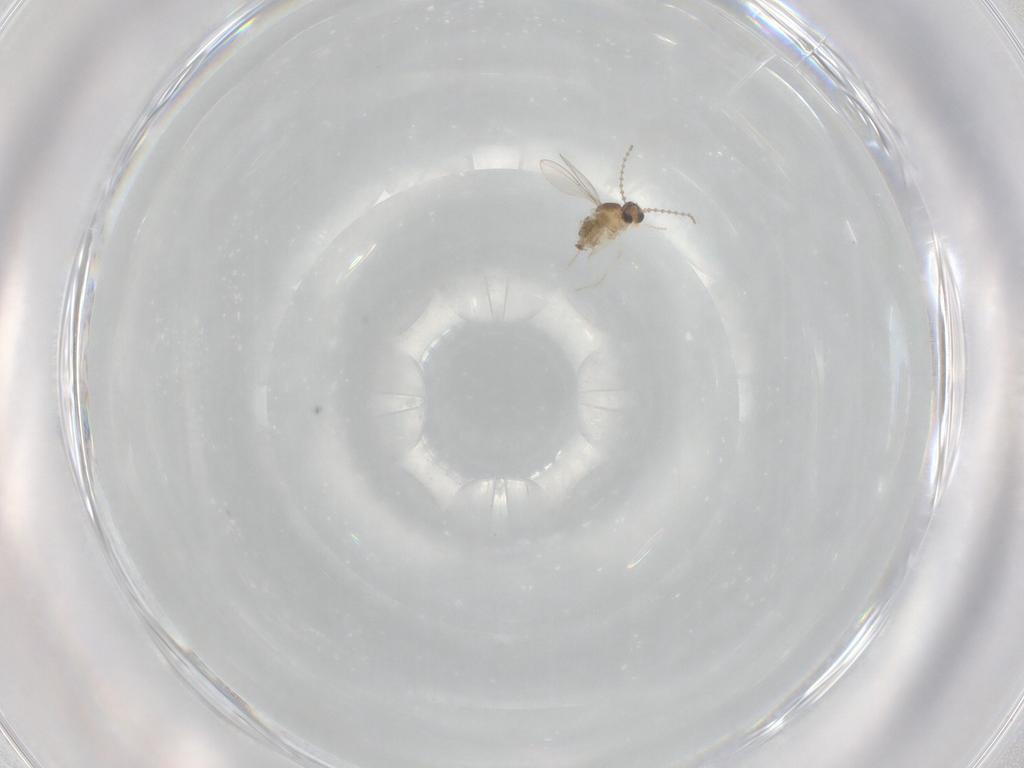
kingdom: Animalia
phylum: Arthropoda
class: Insecta
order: Diptera
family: Cecidomyiidae
